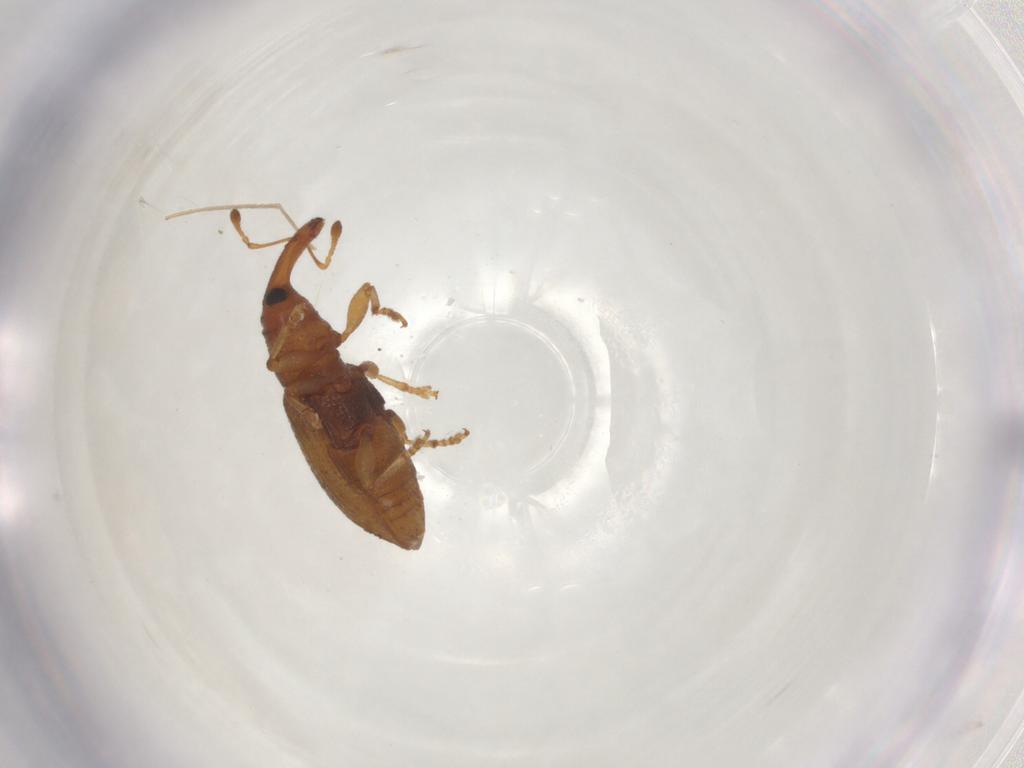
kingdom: Animalia
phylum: Arthropoda
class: Insecta
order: Coleoptera
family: Curculionidae
